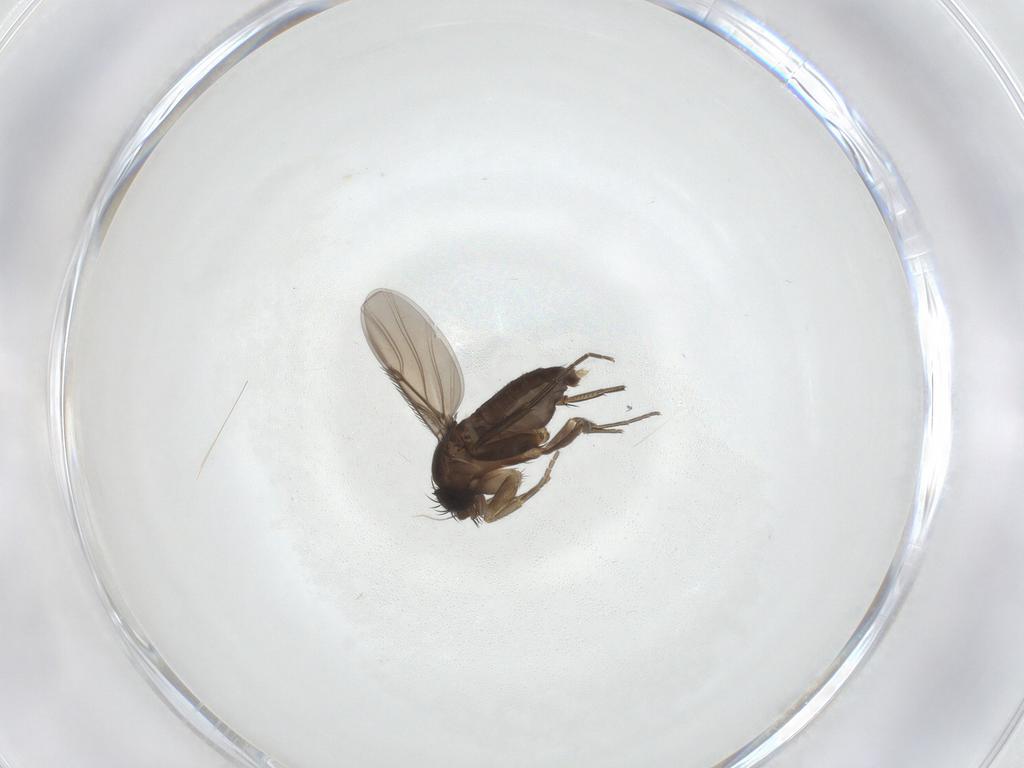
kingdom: Animalia
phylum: Arthropoda
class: Insecta
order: Diptera
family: Phoridae
